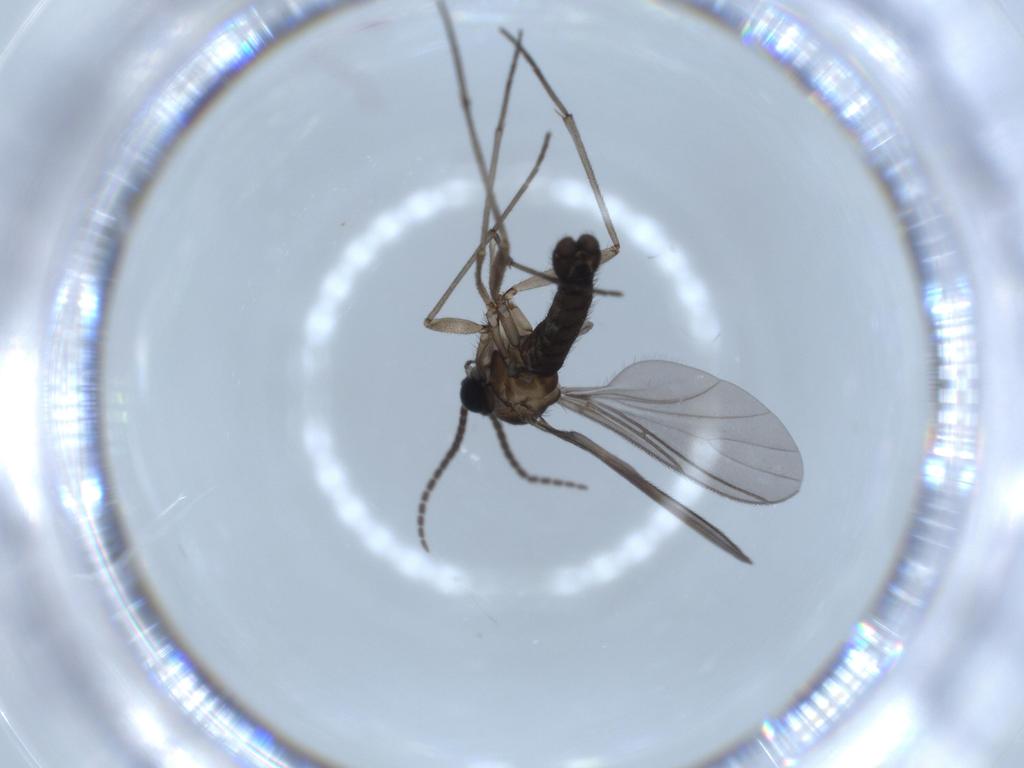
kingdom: Animalia
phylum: Arthropoda
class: Insecta
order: Diptera
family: Sciaridae
